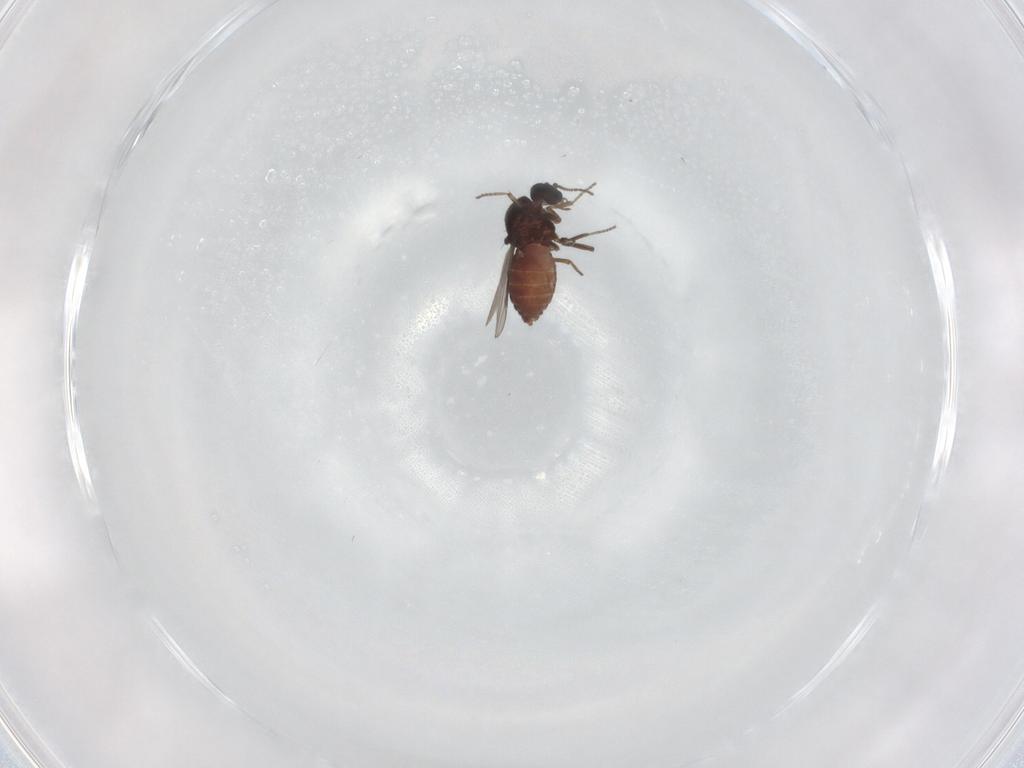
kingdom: Animalia
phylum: Arthropoda
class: Insecta
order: Diptera
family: Ceratopogonidae
